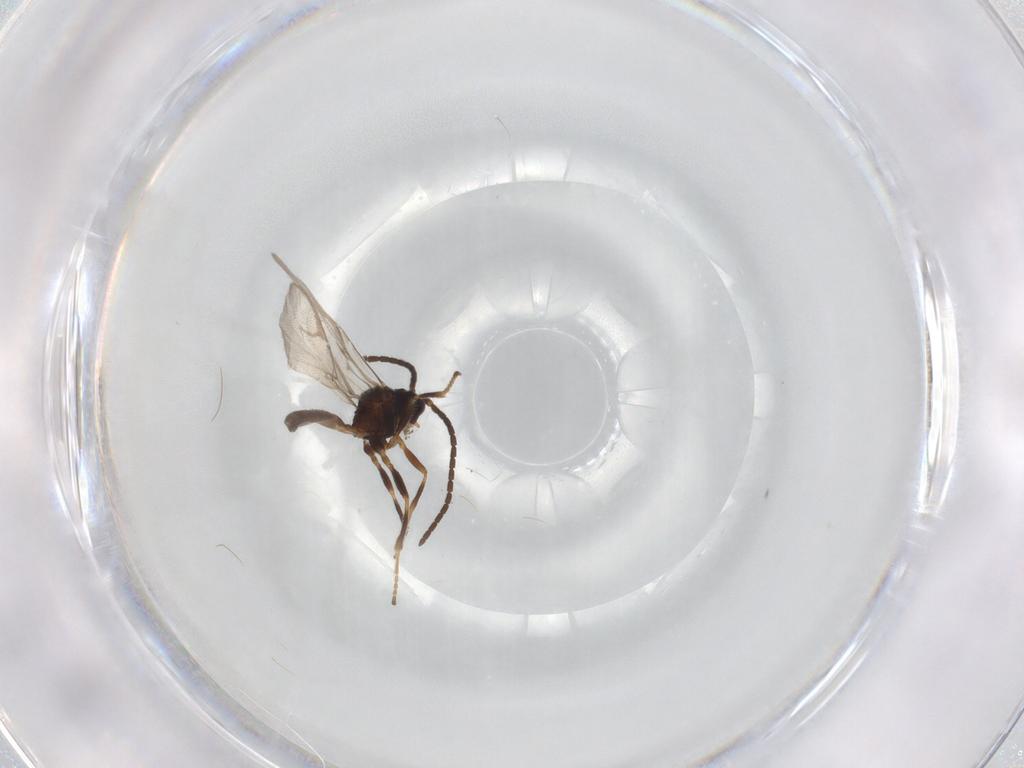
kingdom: Animalia
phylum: Arthropoda
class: Insecta
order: Hymenoptera
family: Braconidae
